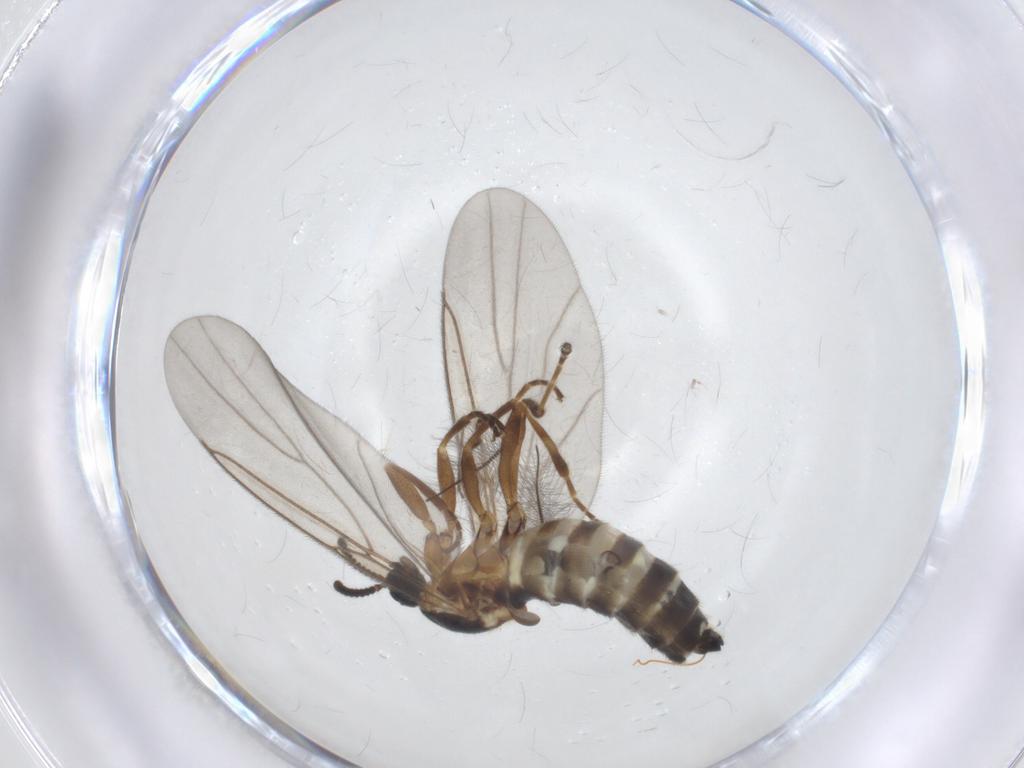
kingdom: Animalia
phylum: Arthropoda
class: Insecta
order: Diptera
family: Scatopsidae
